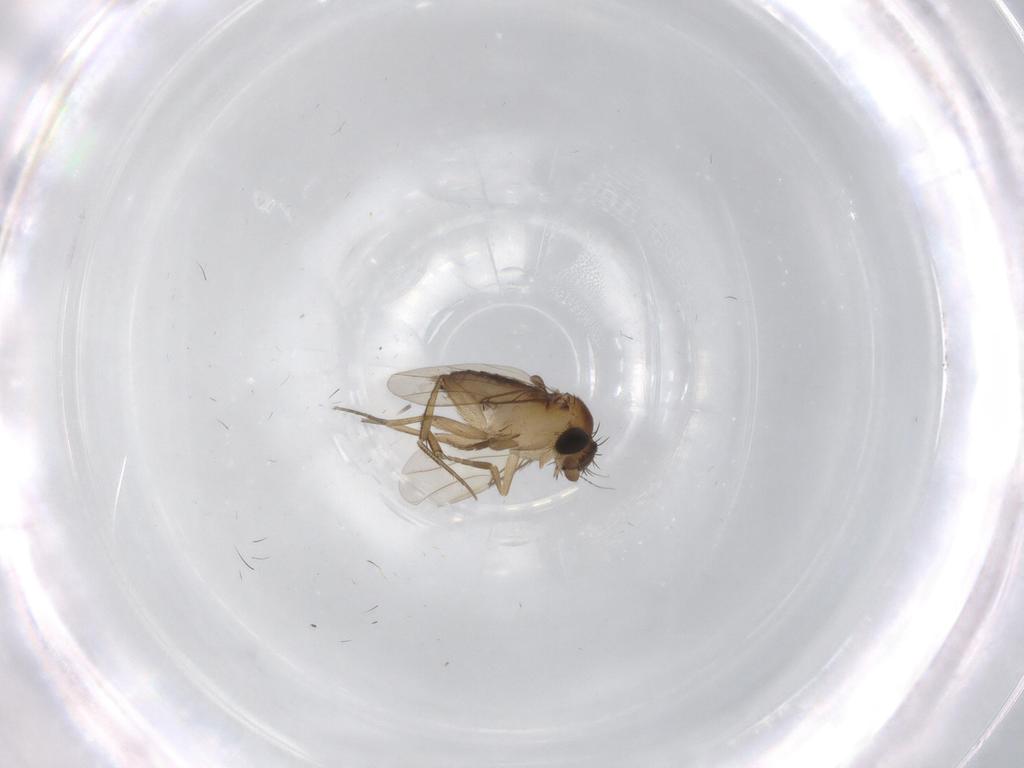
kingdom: Animalia
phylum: Arthropoda
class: Insecta
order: Diptera
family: Phoridae
